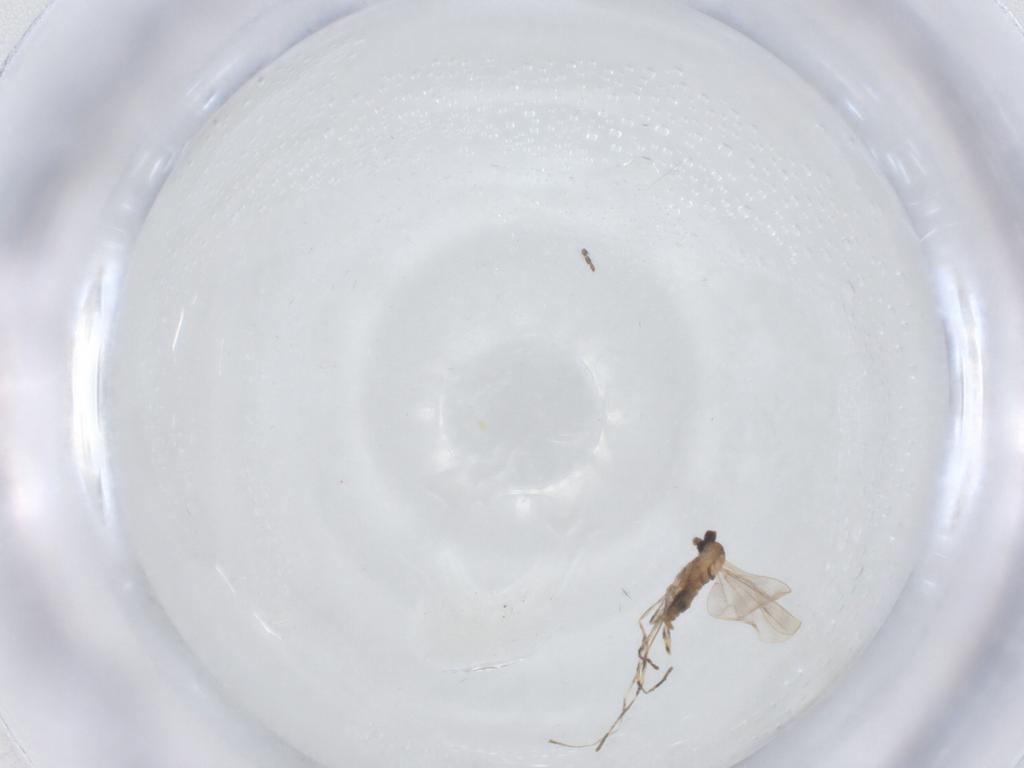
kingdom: Animalia
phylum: Arthropoda
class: Insecta
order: Diptera
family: Cecidomyiidae
